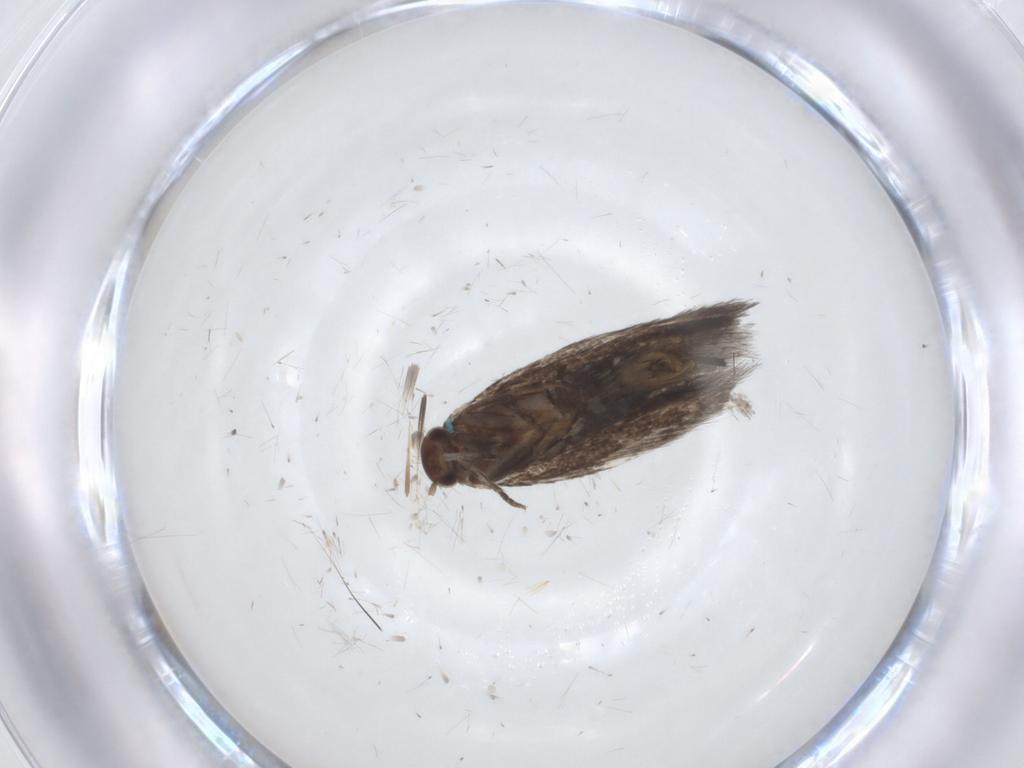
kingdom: Animalia
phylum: Arthropoda
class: Insecta
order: Lepidoptera
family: Elachistidae
